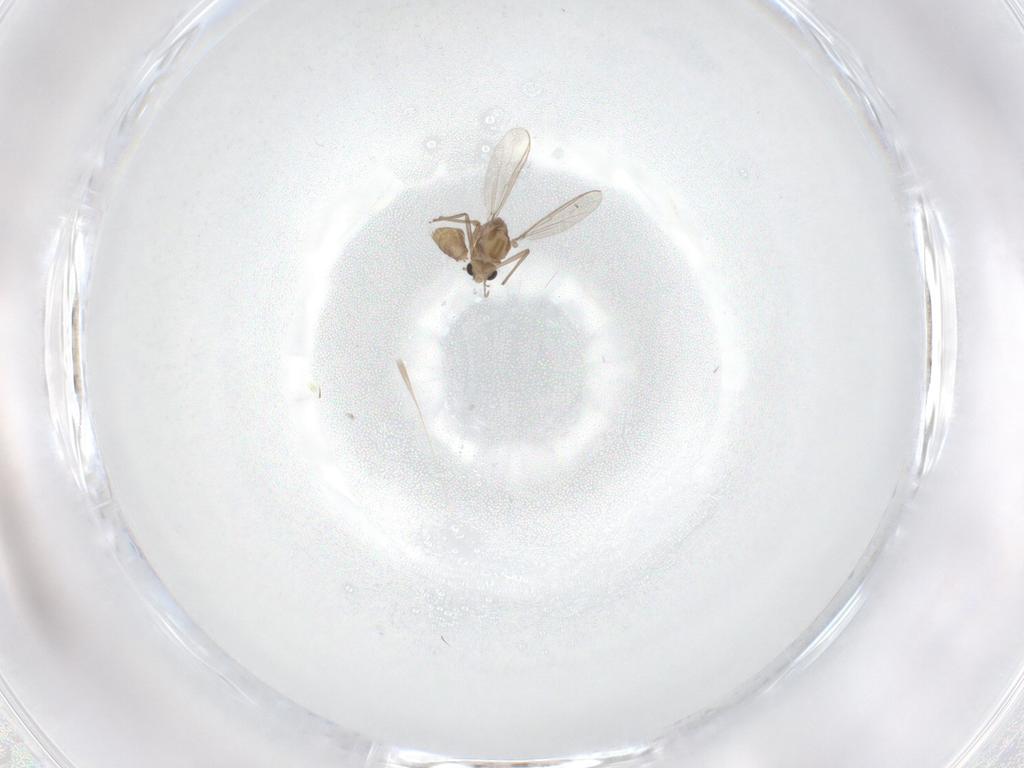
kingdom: Animalia
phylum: Arthropoda
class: Insecta
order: Diptera
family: Chironomidae
